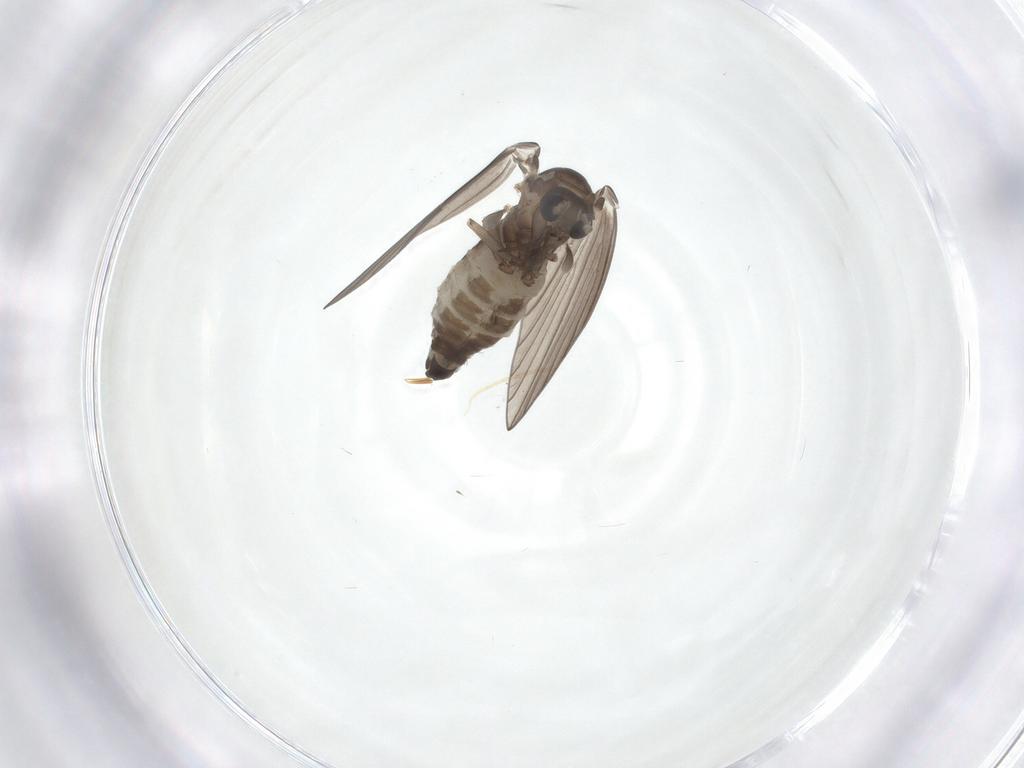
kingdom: Animalia
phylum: Arthropoda
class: Insecta
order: Diptera
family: Psychodidae
